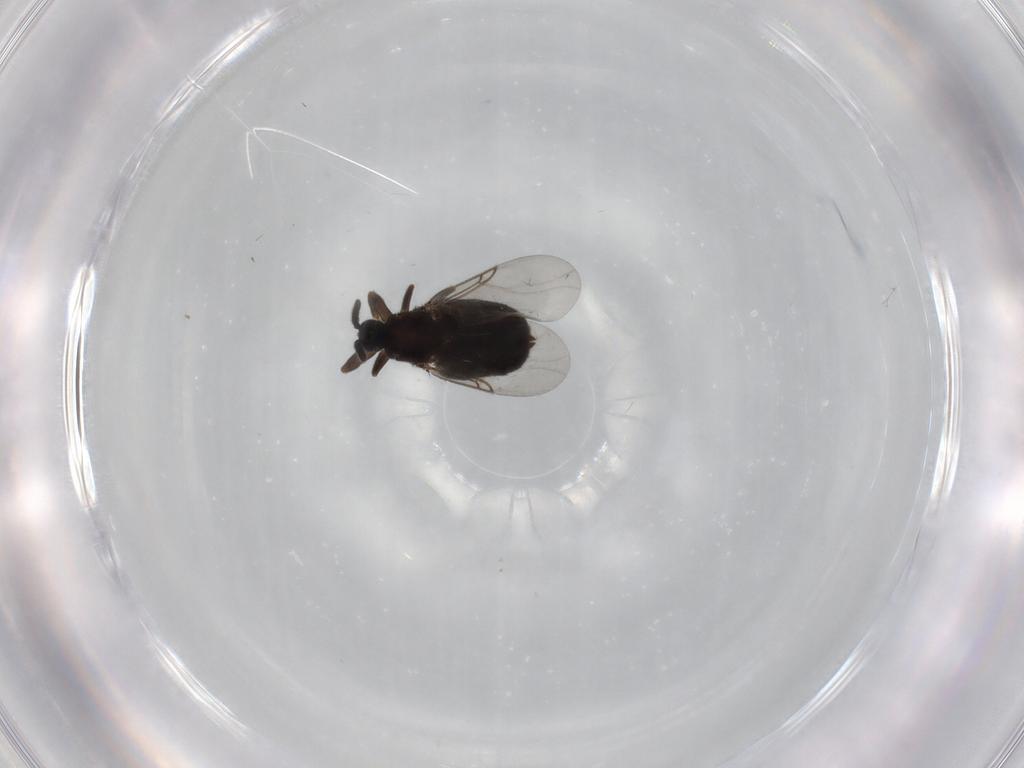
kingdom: Animalia
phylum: Arthropoda
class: Insecta
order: Diptera
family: Scatopsidae
